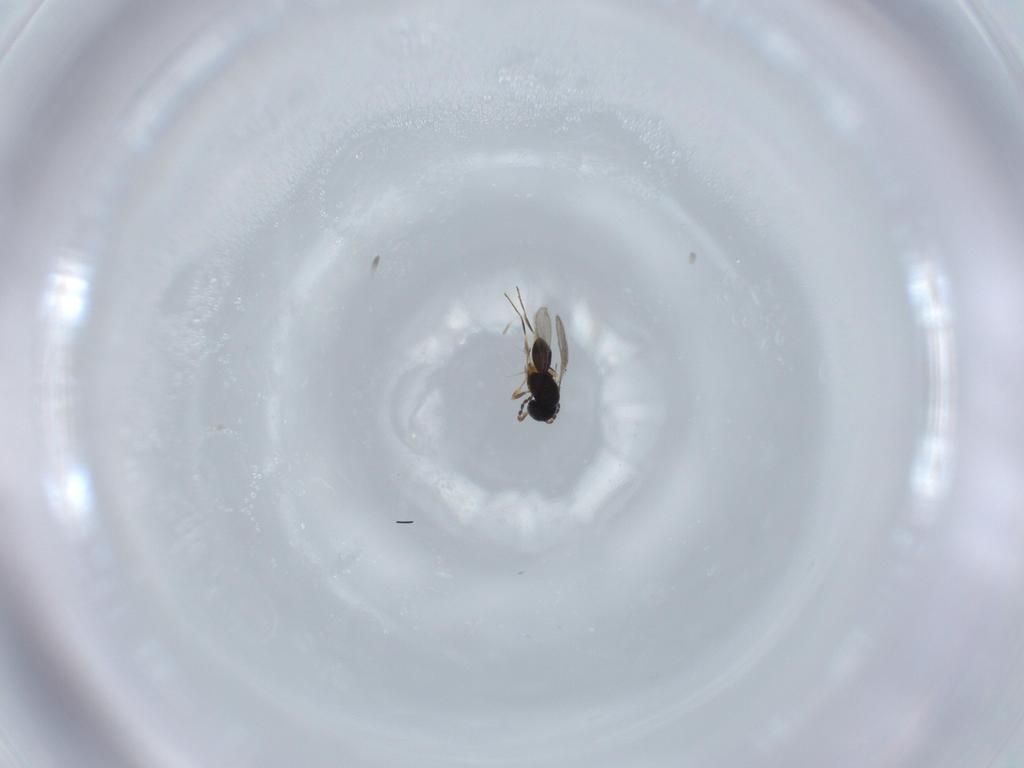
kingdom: Animalia
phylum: Arthropoda
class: Insecta
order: Hymenoptera
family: Scelionidae
